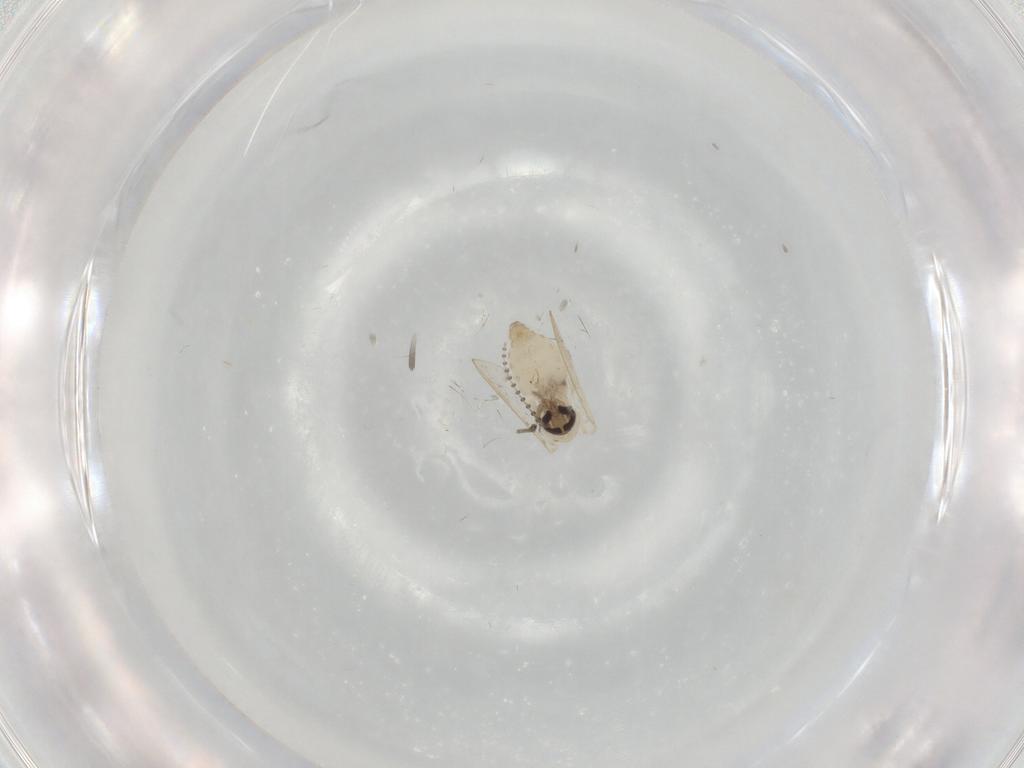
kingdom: Animalia
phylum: Arthropoda
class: Insecta
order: Diptera
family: Psychodidae
